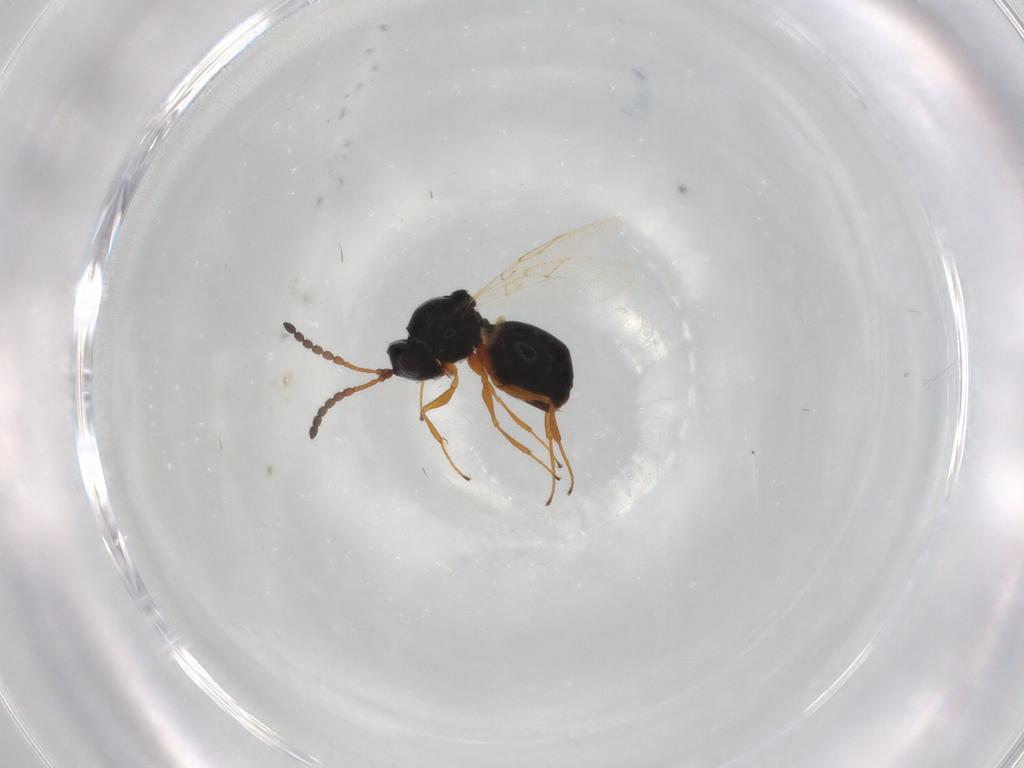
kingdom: Animalia
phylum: Arthropoda
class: Insecta
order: Hymenoptera
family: Figitidae
